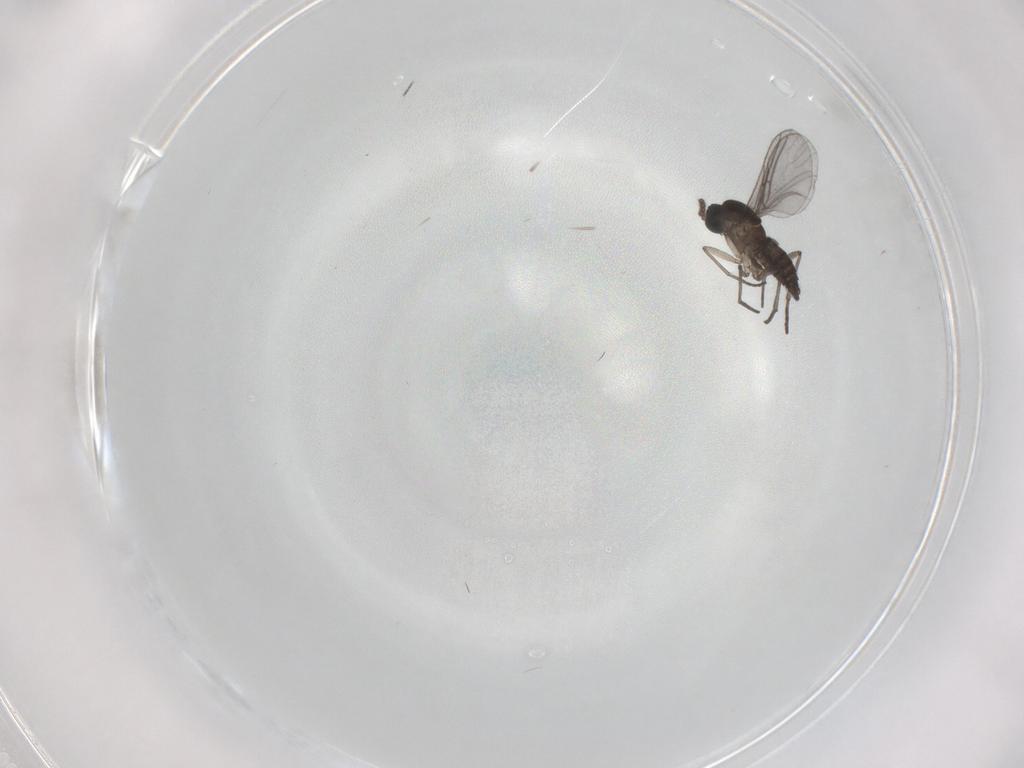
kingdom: Animalia
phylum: Arthropoda
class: Insecta
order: Diptera
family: Sciaridae
